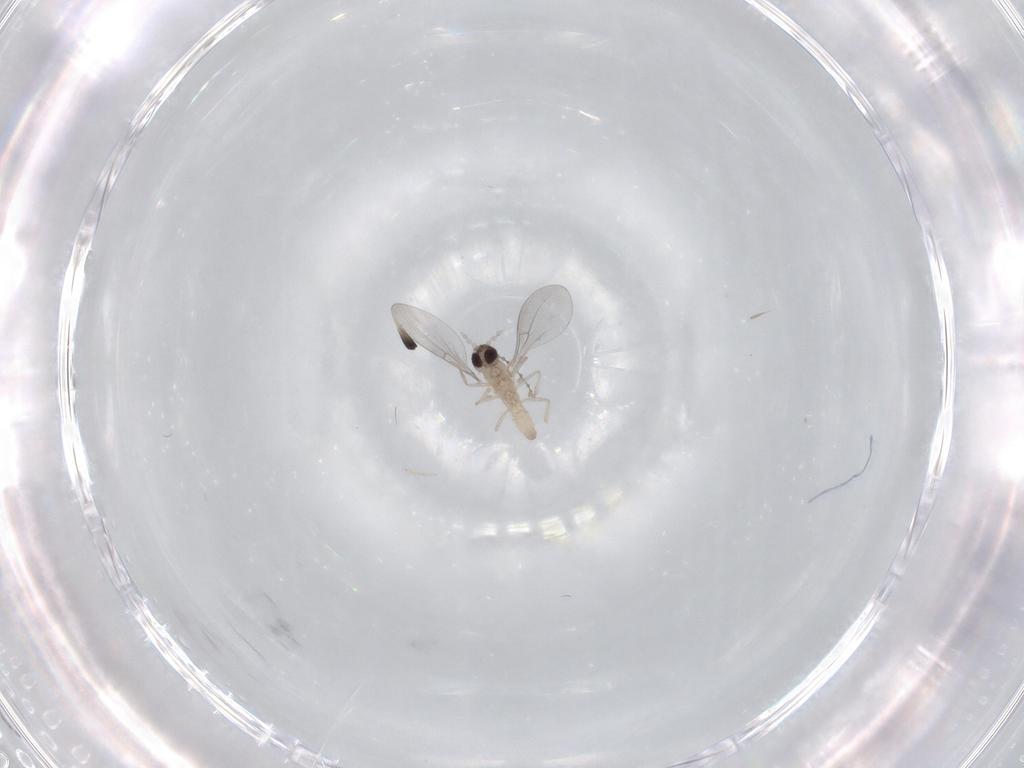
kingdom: Animalia
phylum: Arthropoda
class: Insecta
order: Diptera
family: Cecidomyiidae
